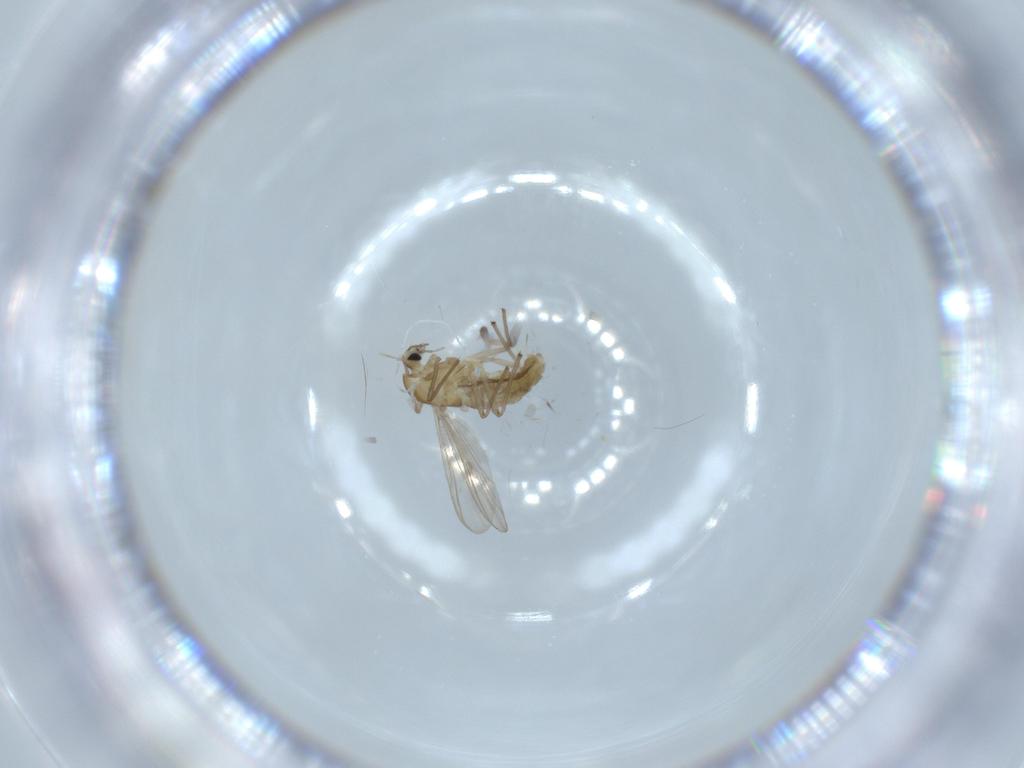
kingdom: Animalia
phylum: Arthropoda
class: Insecta
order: Diptera
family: Chironomidae
